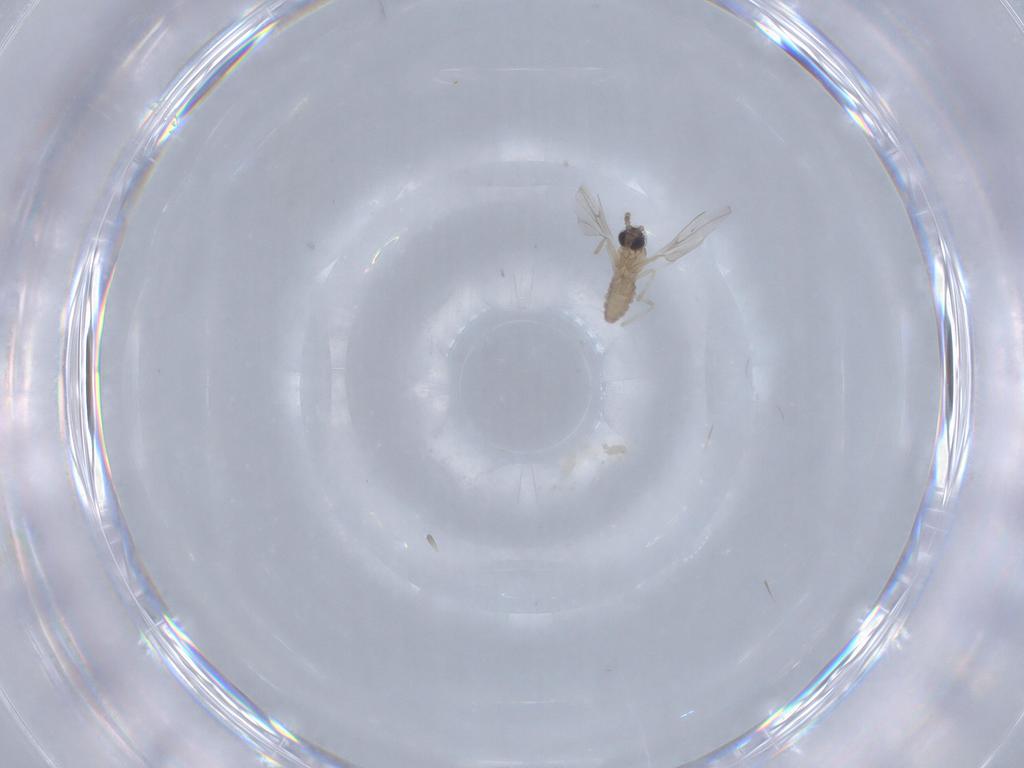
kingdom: Animalia
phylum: Arthropoda
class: Insecta
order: Diptera
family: Cecidomyiidae
